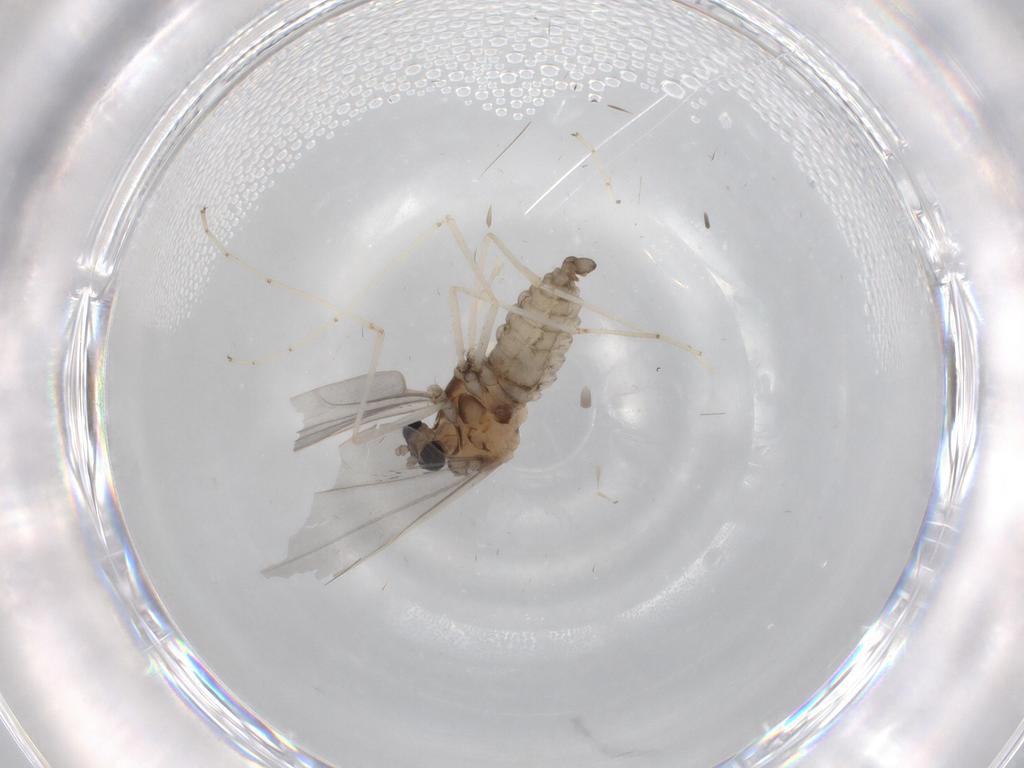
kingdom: Animalia
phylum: Arthropoda
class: Insecta
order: Diptera
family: Cecidomyiidae
